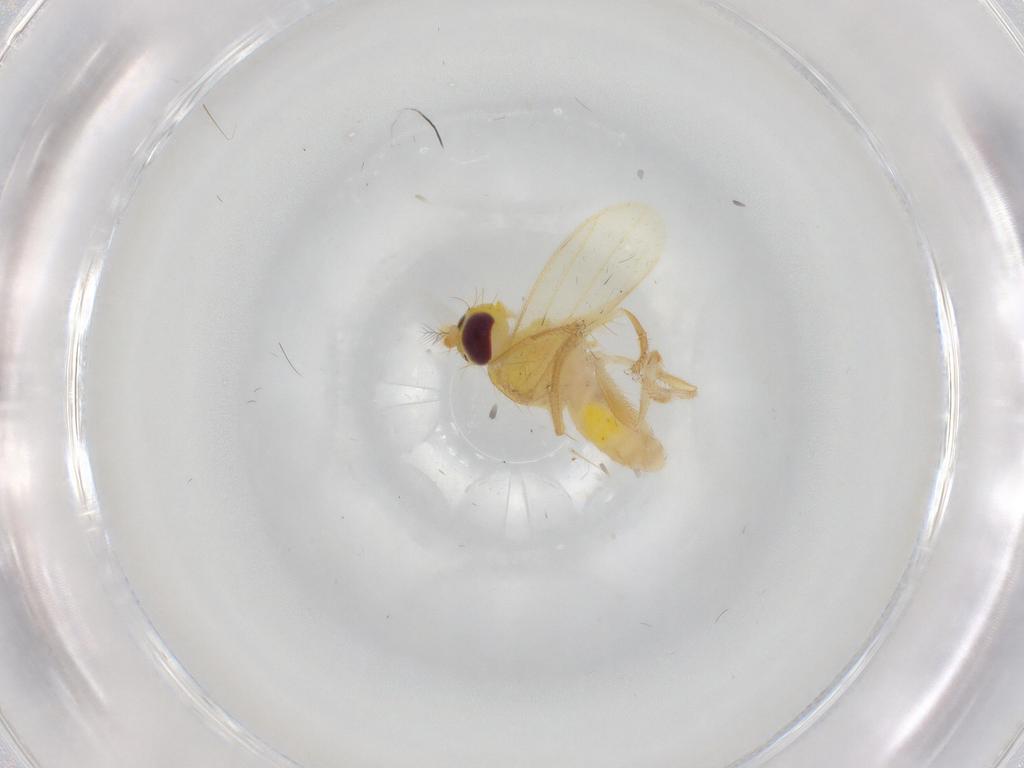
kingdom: Animalia
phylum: Arthropoda
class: Insecta
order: Diptera
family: Periscelididae
